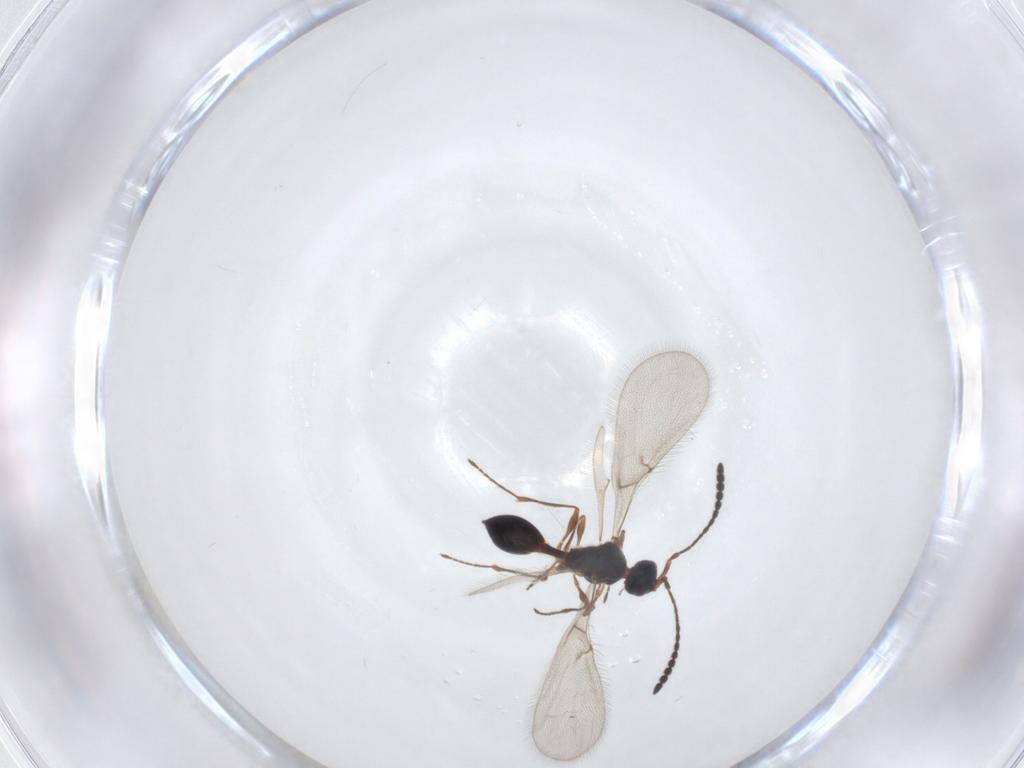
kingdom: Animalia
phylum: Arthropoda
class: Insecta
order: Hymenoptera
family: Diapriidae
